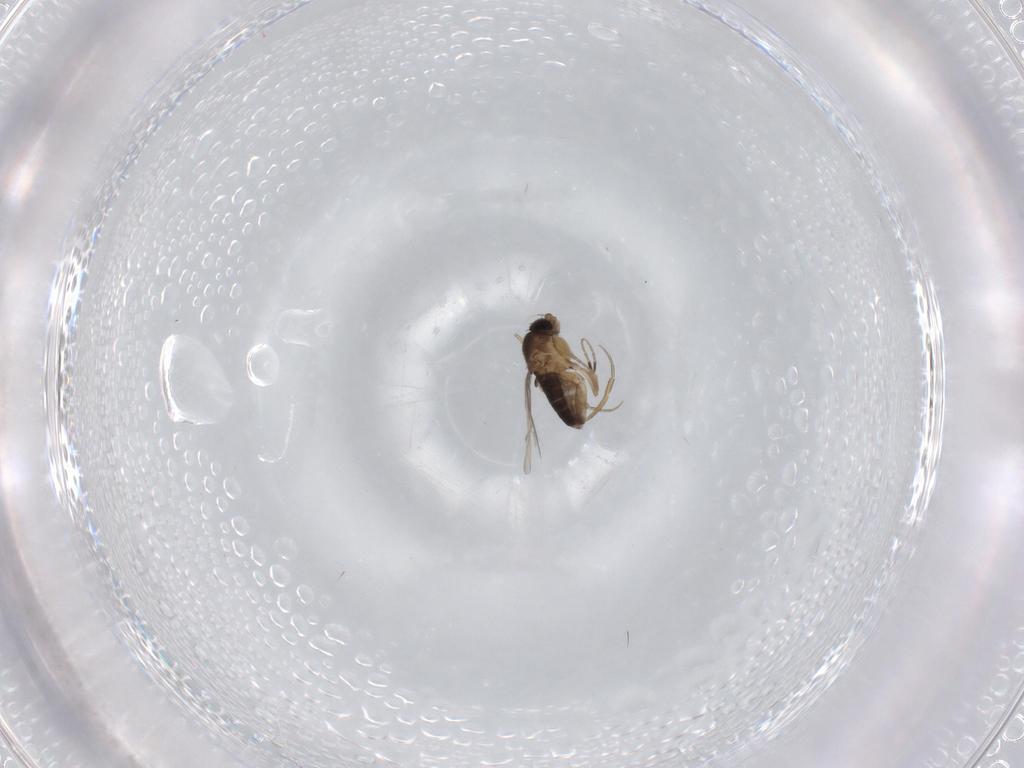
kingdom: Animalia
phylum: Arthropoda
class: Insecta
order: Diptera
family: Phoridae
